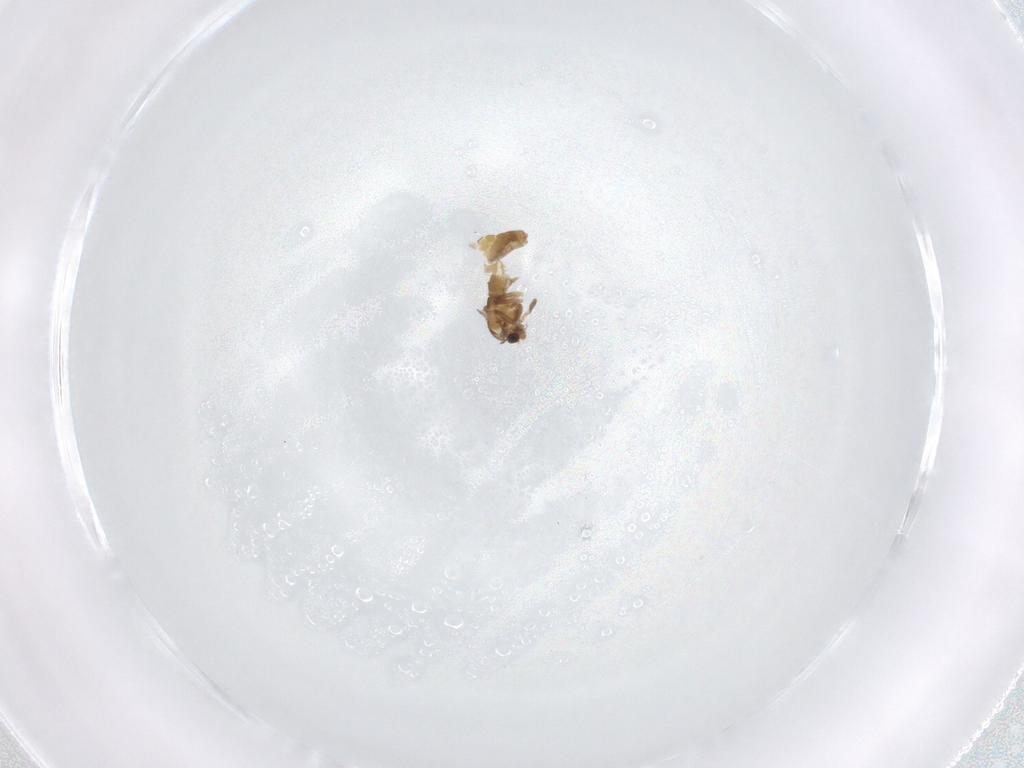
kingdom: Animalia
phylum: Arthropoda
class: Insecta
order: Diptera
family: Chironomidae
